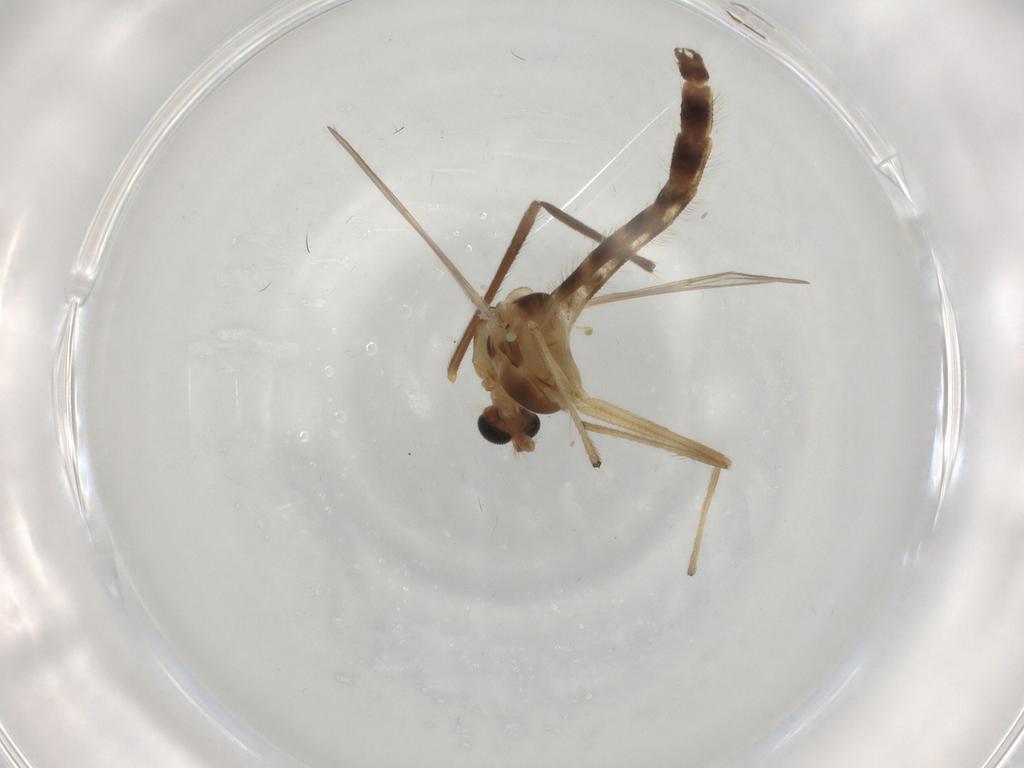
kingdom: Animalia
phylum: Arthropoda
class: Insecta
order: Diptera
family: Chironomidae
